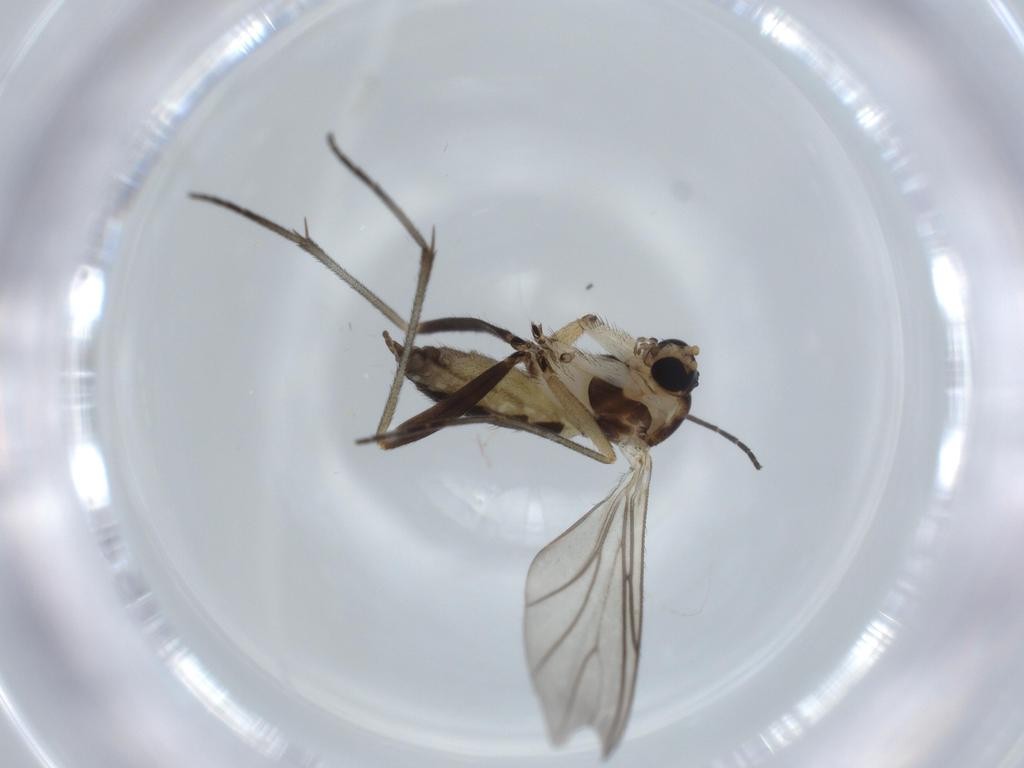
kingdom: Animalia
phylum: Arthropoda
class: Insecta
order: Diptera
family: Sciaridae
